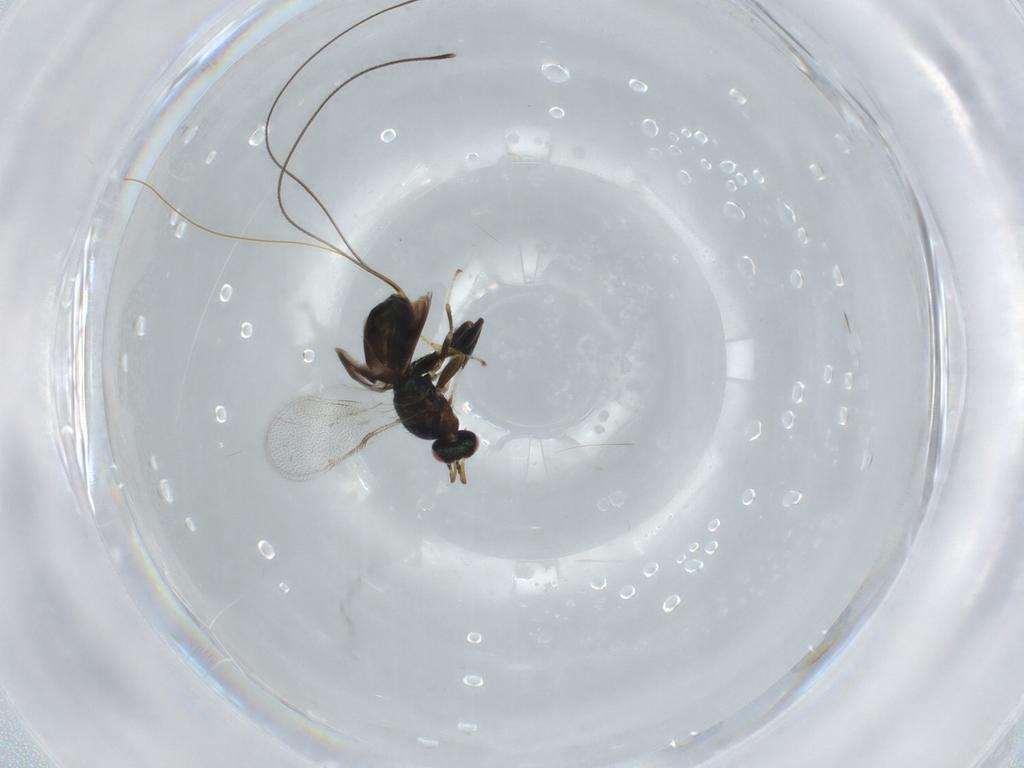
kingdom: Animalia
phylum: Arthropoda
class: Insecta
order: Hymenoptera
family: Torymidae
